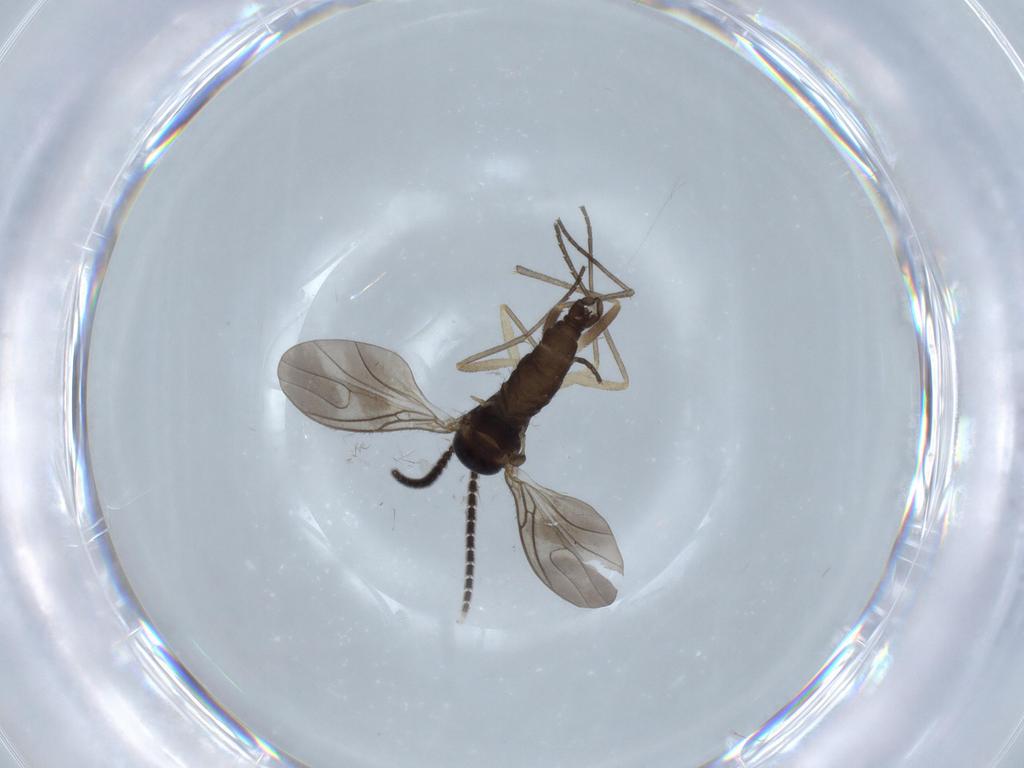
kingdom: Animalia
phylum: Arthropoda
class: Insecta
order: Diptera
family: Sciaridae
